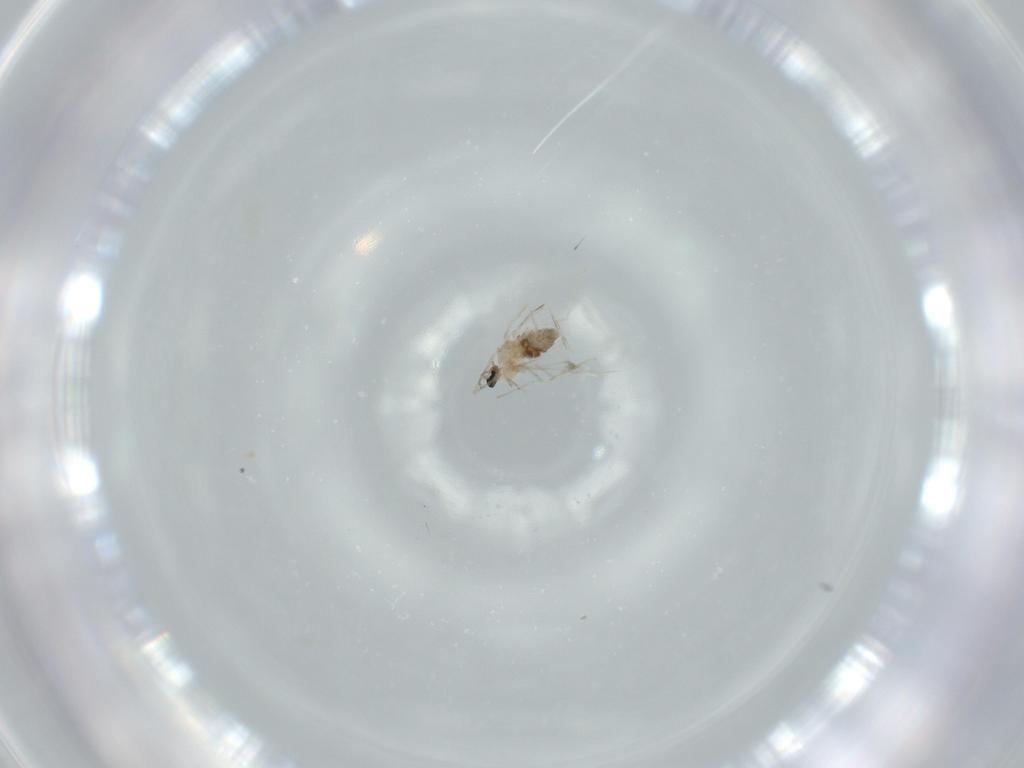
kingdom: Animalia
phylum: Arthropoda
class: Insecta
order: Diptera
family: Cecidomyiidae
